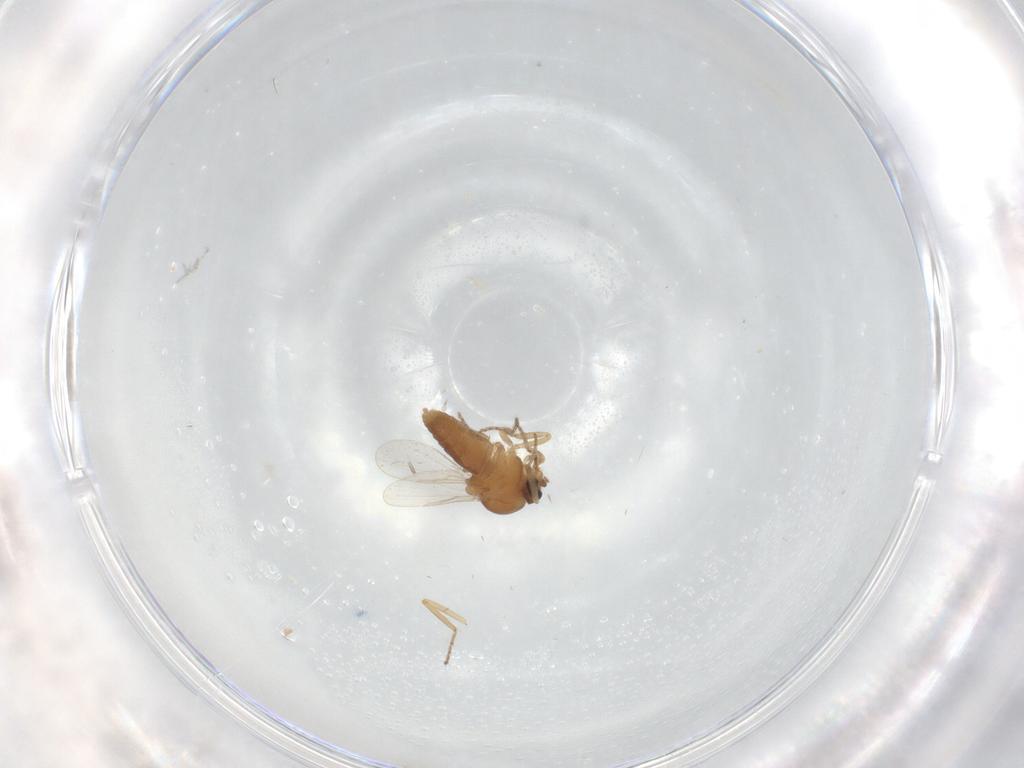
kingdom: Animalia
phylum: Arthropoda
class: Insecta
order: Diptera
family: Ceratopogonidae
